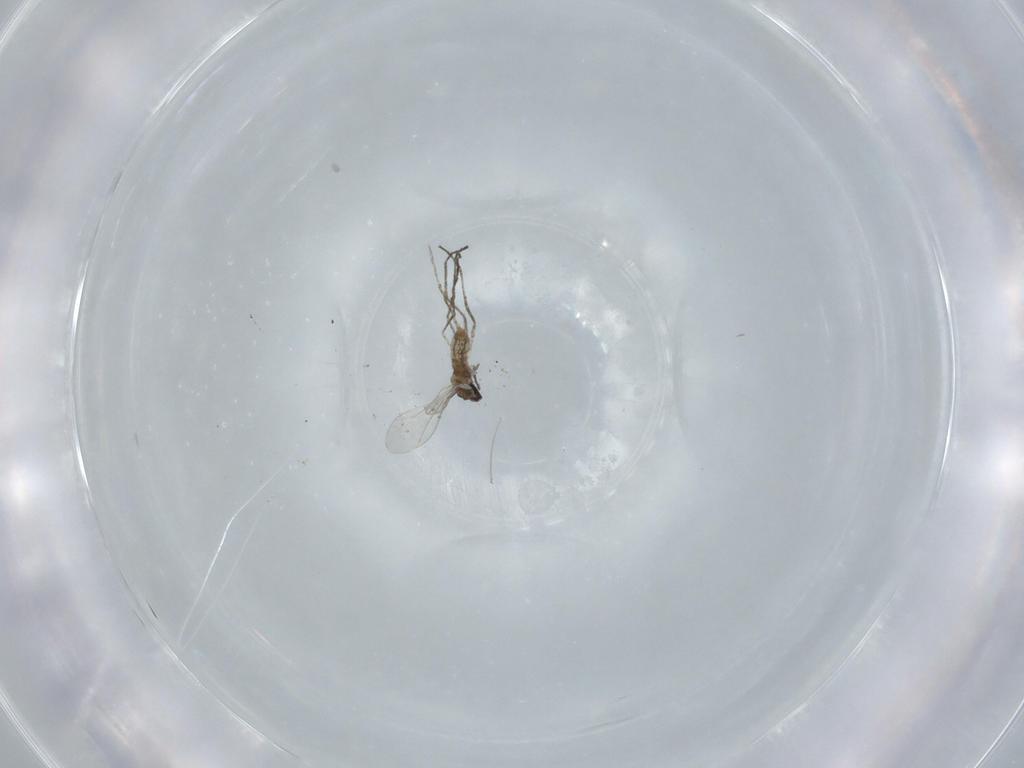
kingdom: Animalia
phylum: Arthropoda
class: Insecta
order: Diptera
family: Cecidomyiidae
